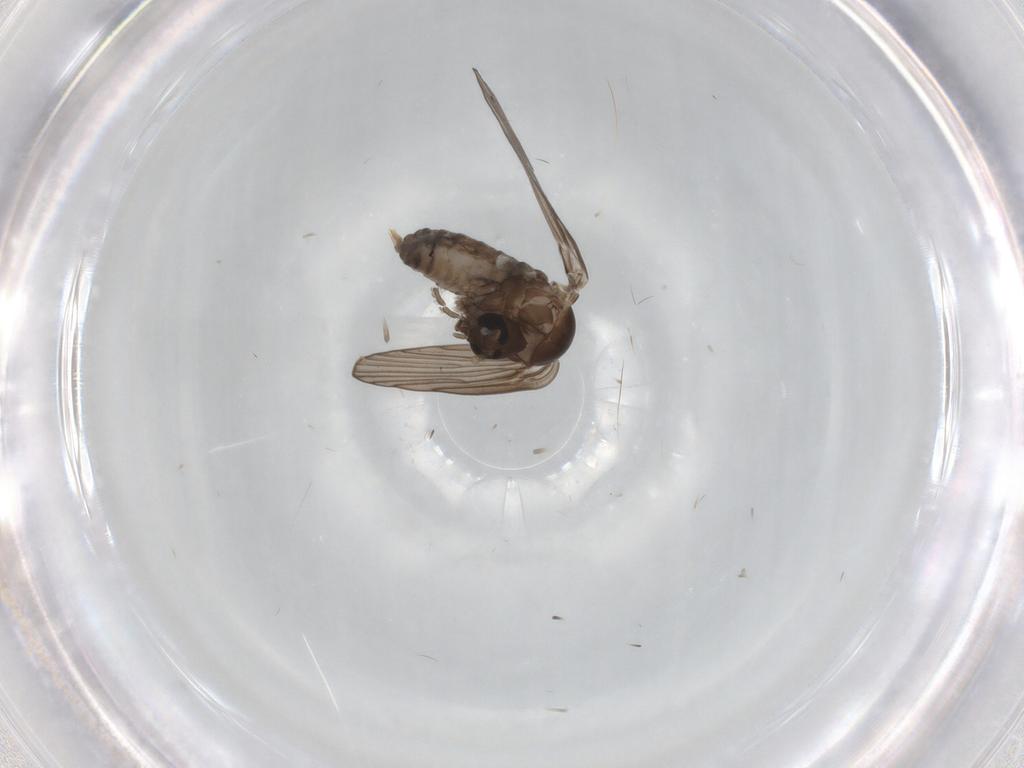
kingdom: Animalia
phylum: Arthropoda
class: Insecta
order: Diptera
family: Psychodidae
